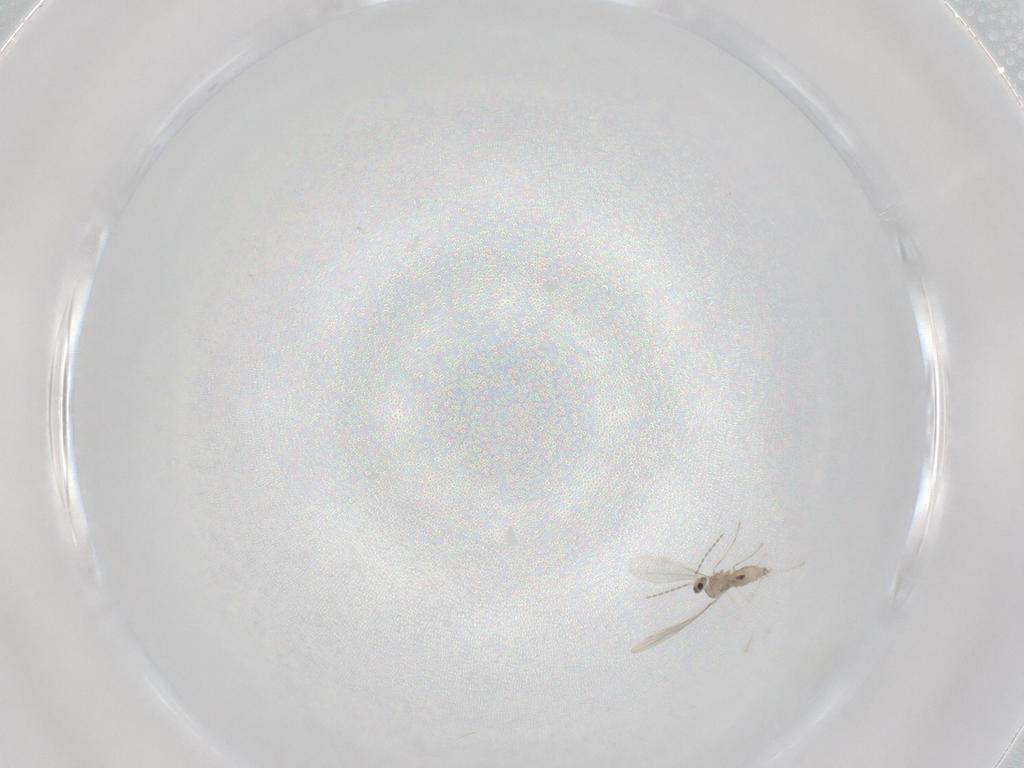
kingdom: Animalia
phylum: Arthropoda
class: Insecta
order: Diptera
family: Cecidomyiidae
